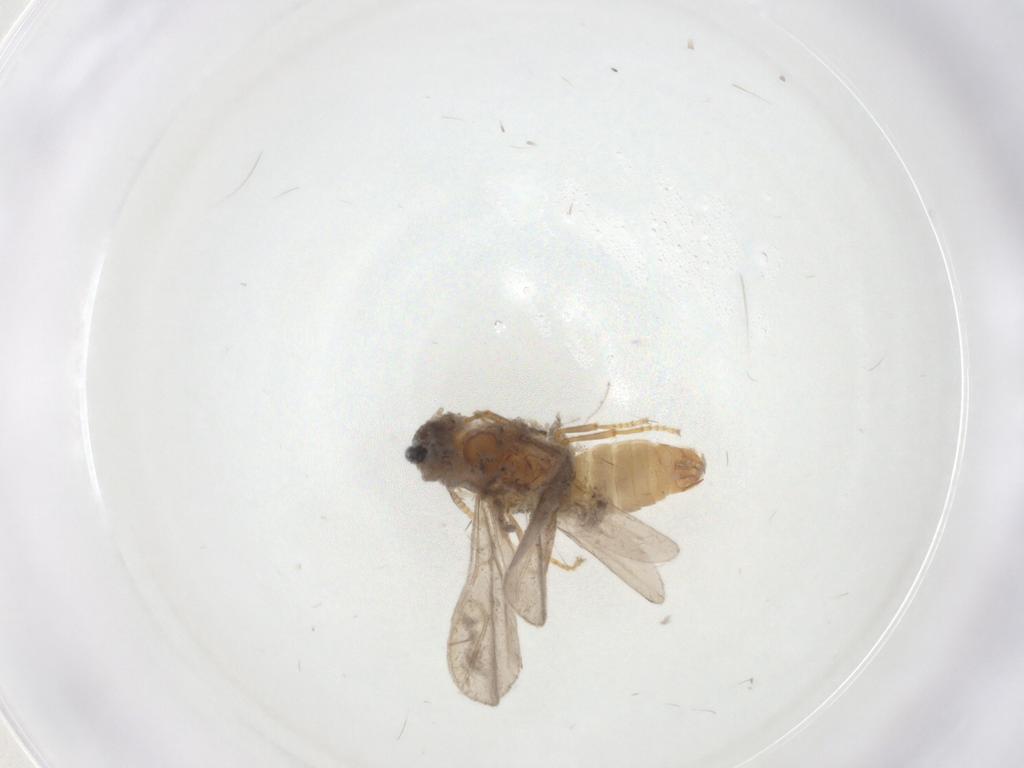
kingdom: Animalia
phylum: Arthropoda
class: Insecta
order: Hymenoptera
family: Formicidae
